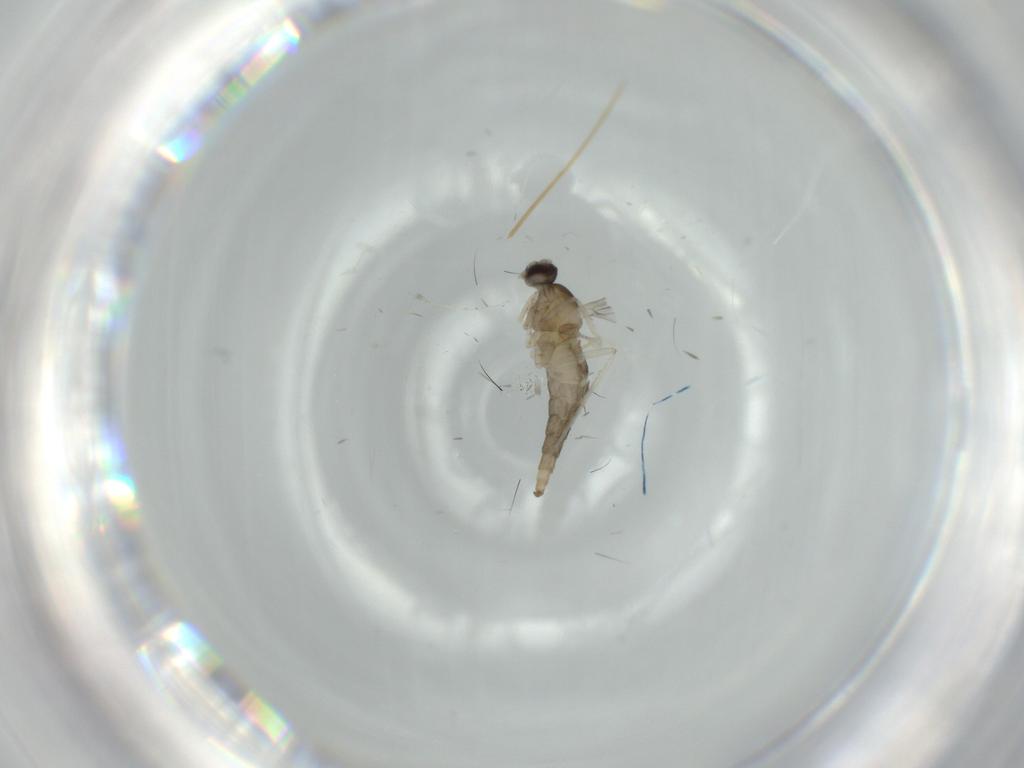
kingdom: Animalia
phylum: Arthropoda
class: Insecta
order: Diptera
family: Cecidomyiidae
